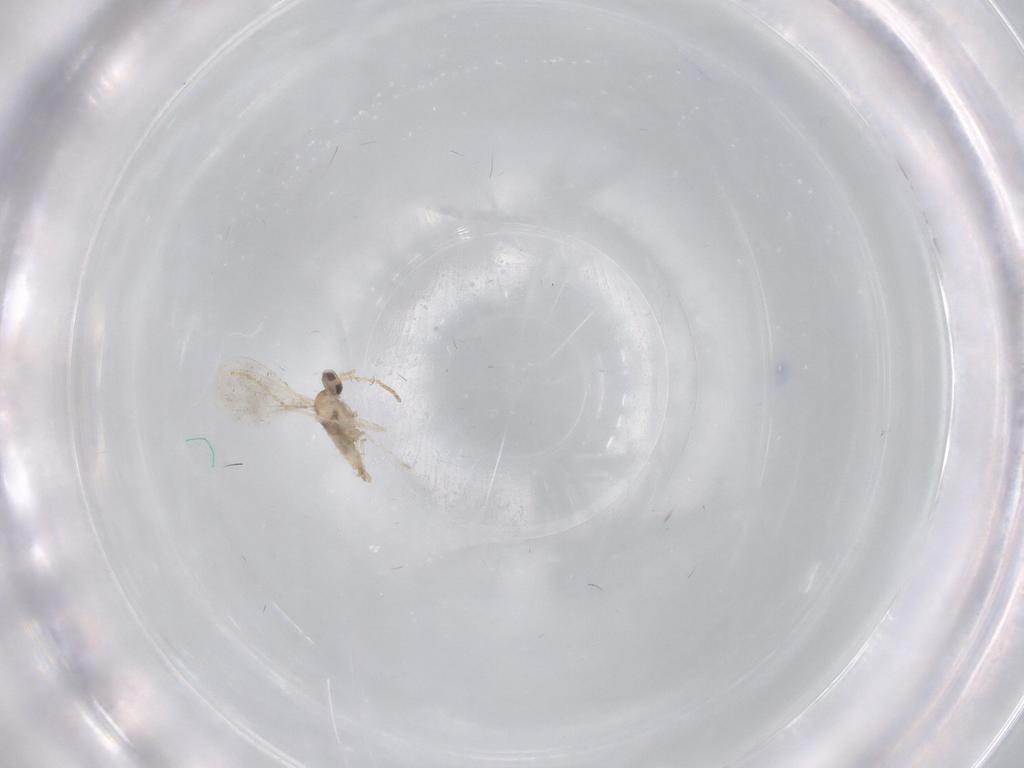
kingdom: Animalia
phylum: Arthropoda
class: Insecta
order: Diptera
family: Cecidomyiidae
